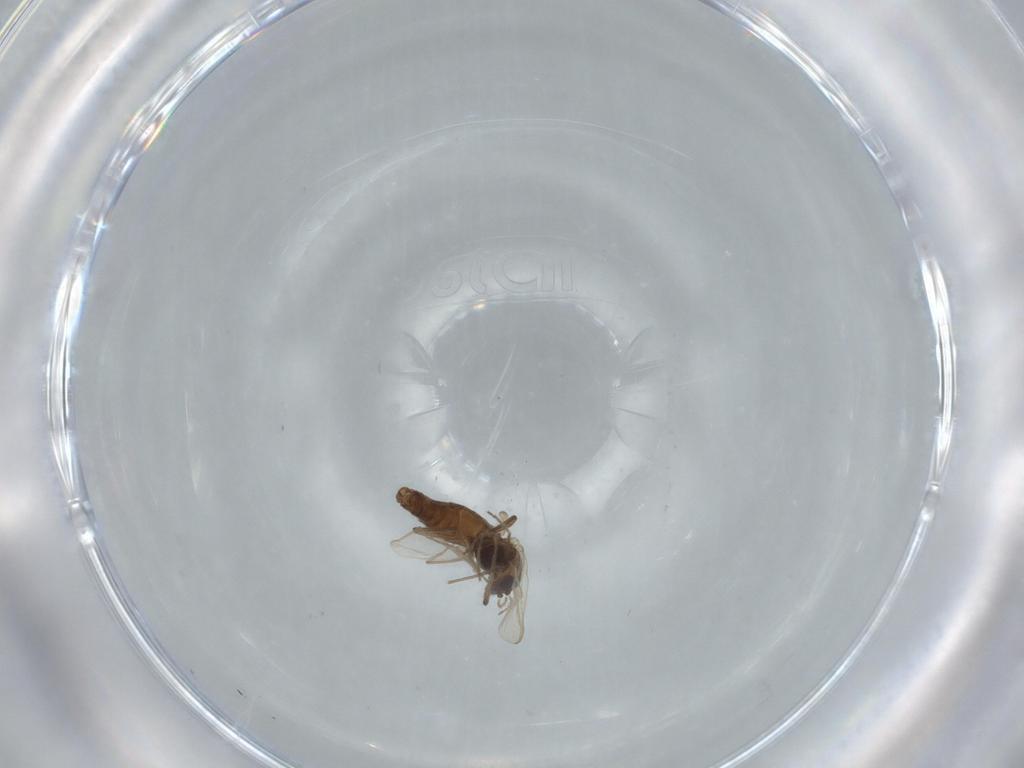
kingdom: Animalia
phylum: Arthropoda
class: Insecta
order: Diptera
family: Chironomidae
